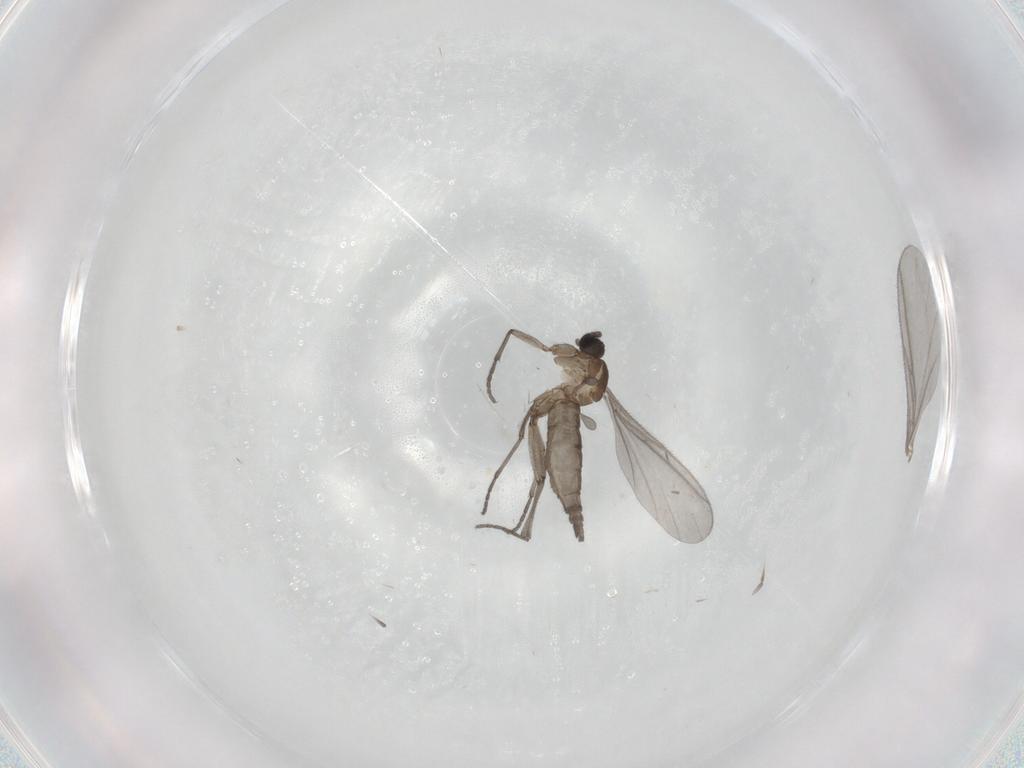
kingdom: Animalia
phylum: Arthropoda
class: Insecta
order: Diptera
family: Sciaridae
